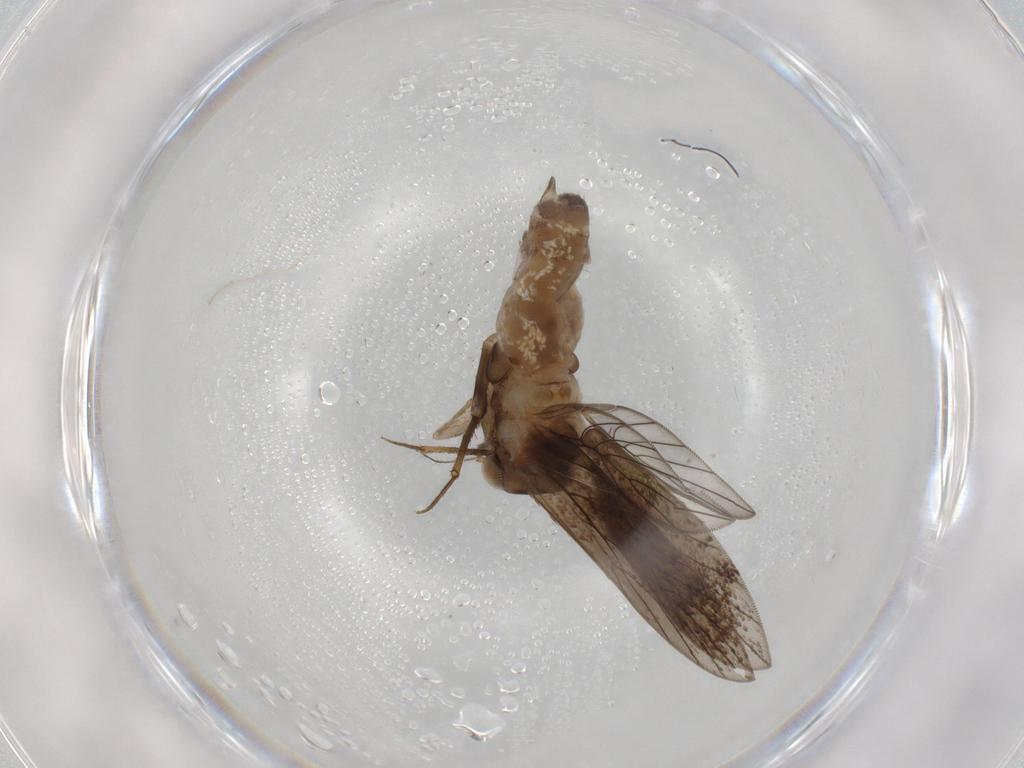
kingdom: Animalia
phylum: Arthropoda
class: Insecta
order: Psocodea
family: Lepidopsocidae
